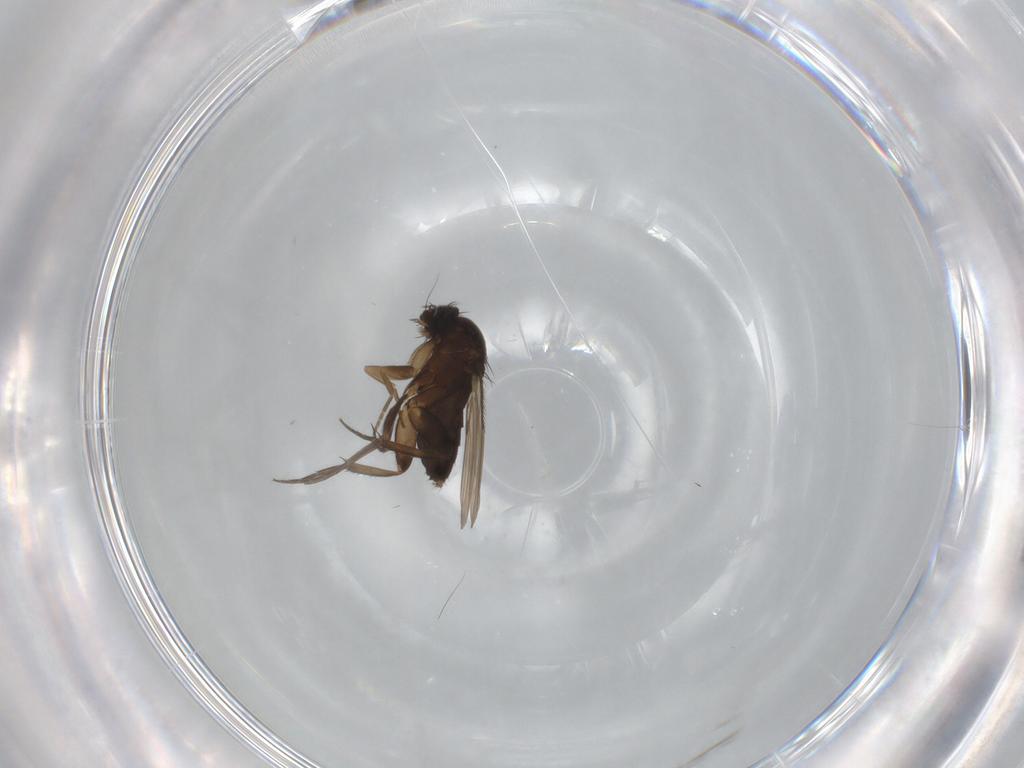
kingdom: Animalia
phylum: Arthropoda
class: Insecta
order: Diptera
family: Phoridae
